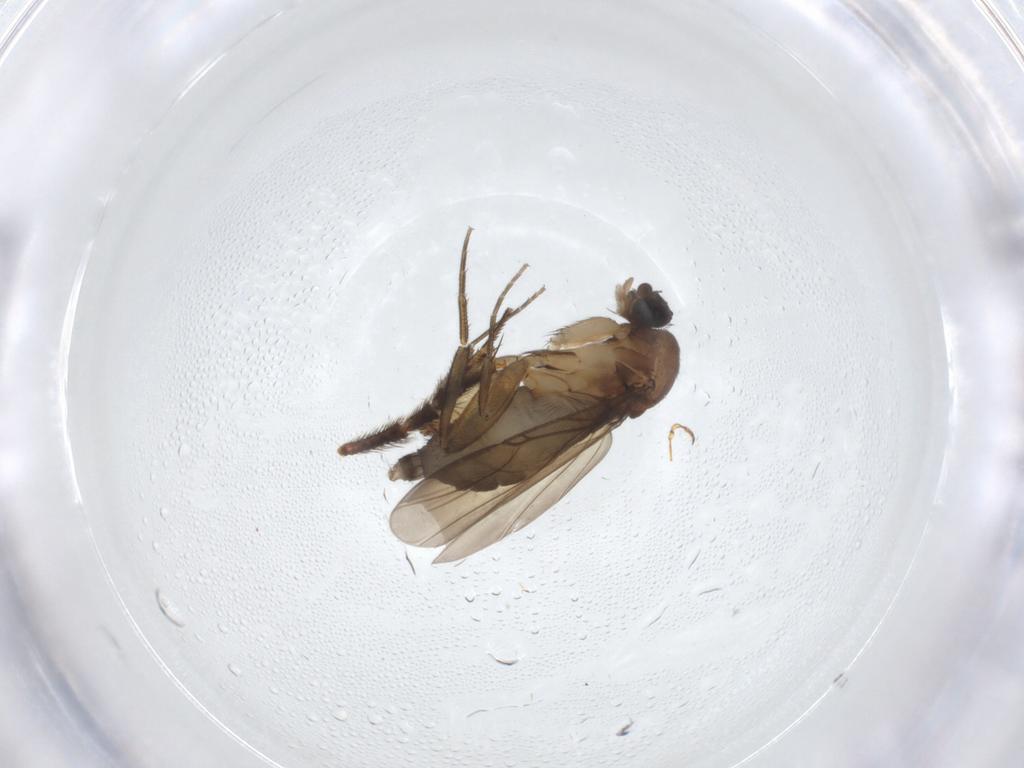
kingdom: Animalia
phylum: Arthropoda
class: Insecta
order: Diptera
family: Phoridae
